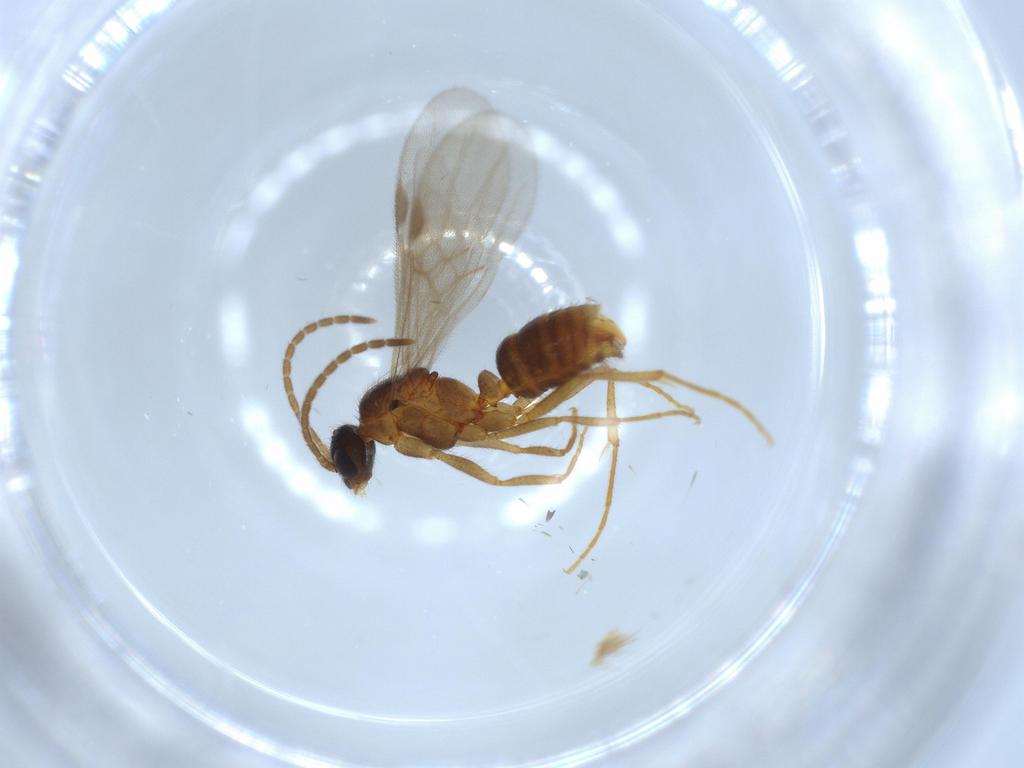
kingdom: Animalia
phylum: Arthropoda
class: Insecta
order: Hymenoptera
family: Formicidae
